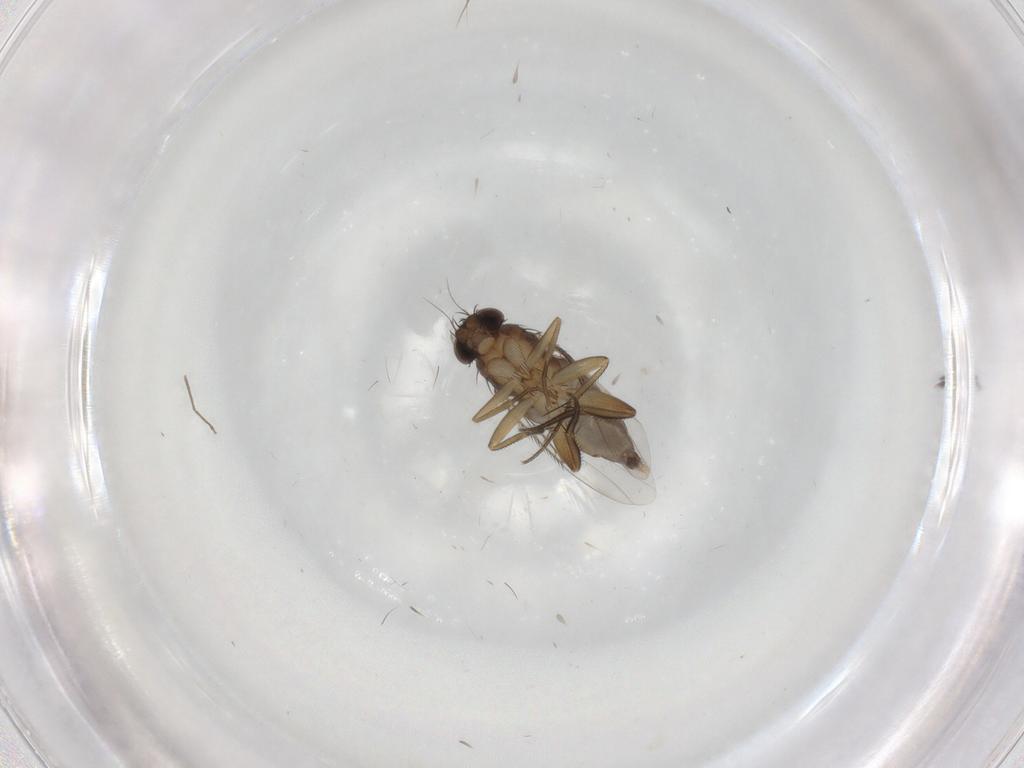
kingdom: Animalia
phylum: Arthropoda
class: Insecta
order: Diptera
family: Phoridae
